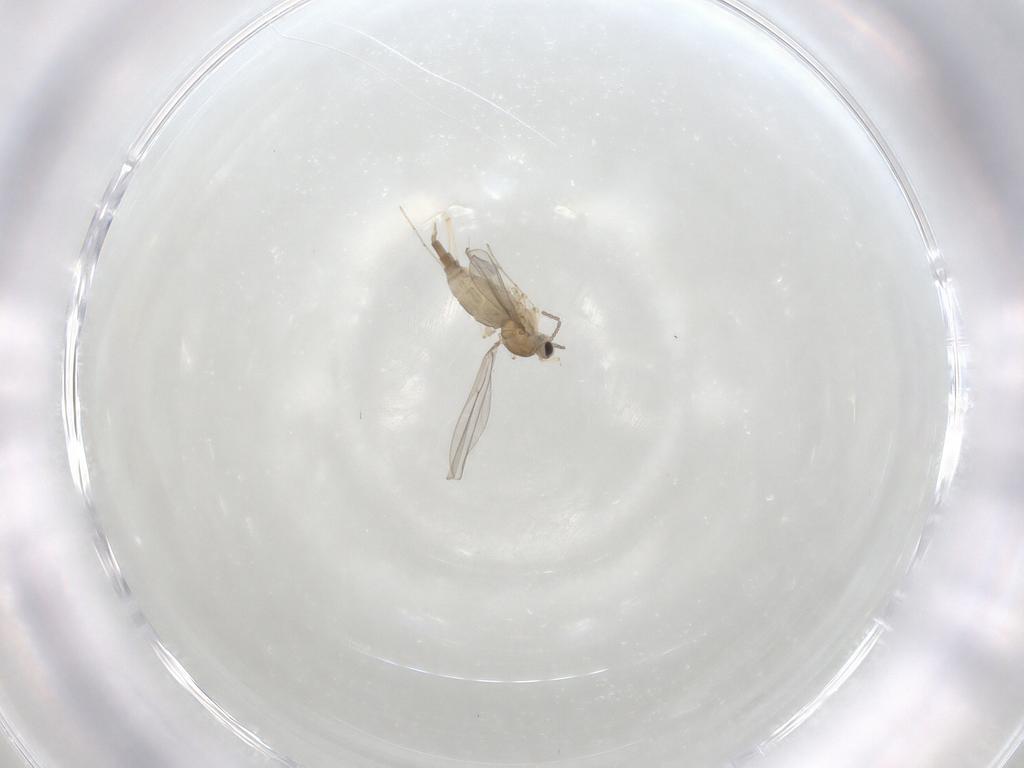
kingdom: Animalia
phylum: Arthropoda
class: Insecta
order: Diptera
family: Cecidomyiidae
